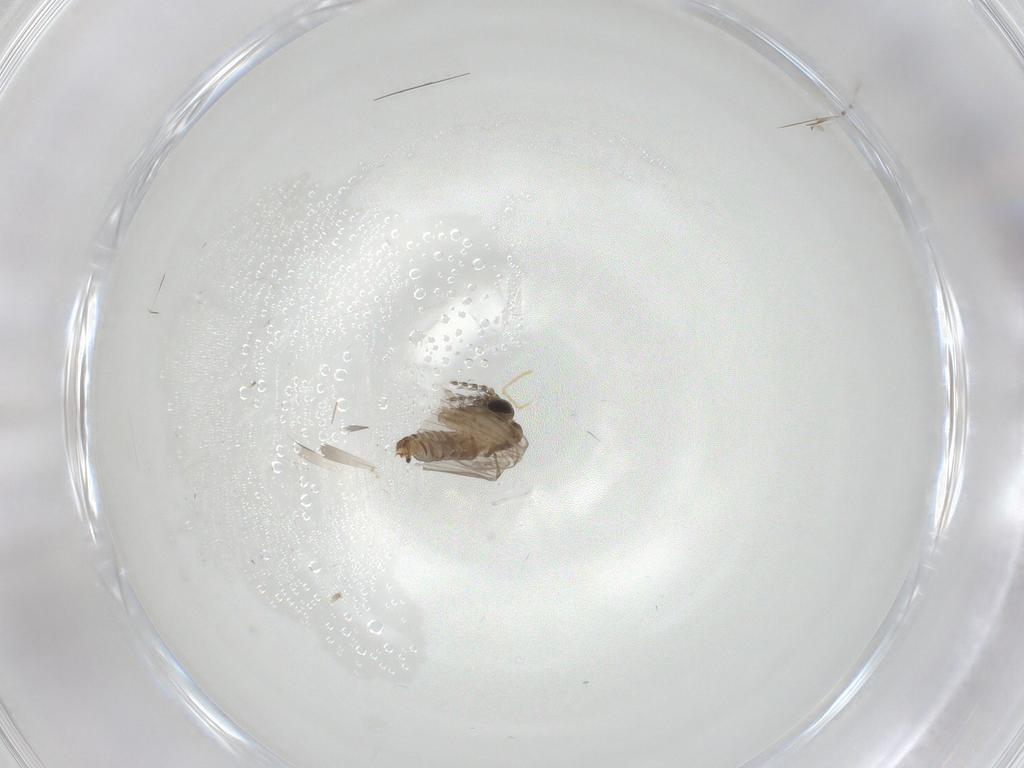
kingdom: Animalia
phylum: Arthropoda
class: Insecta
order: Diptera
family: Psychodidae
